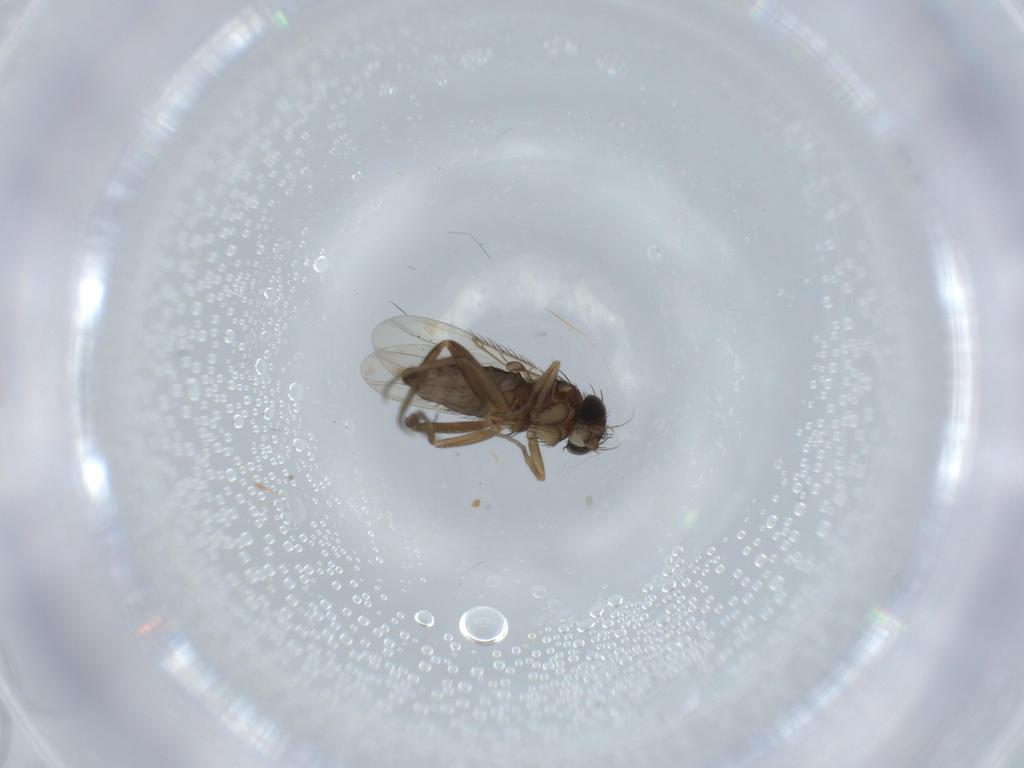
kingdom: Animalia
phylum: Arthropoda
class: Insecta
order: Diptera
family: Phoridae
